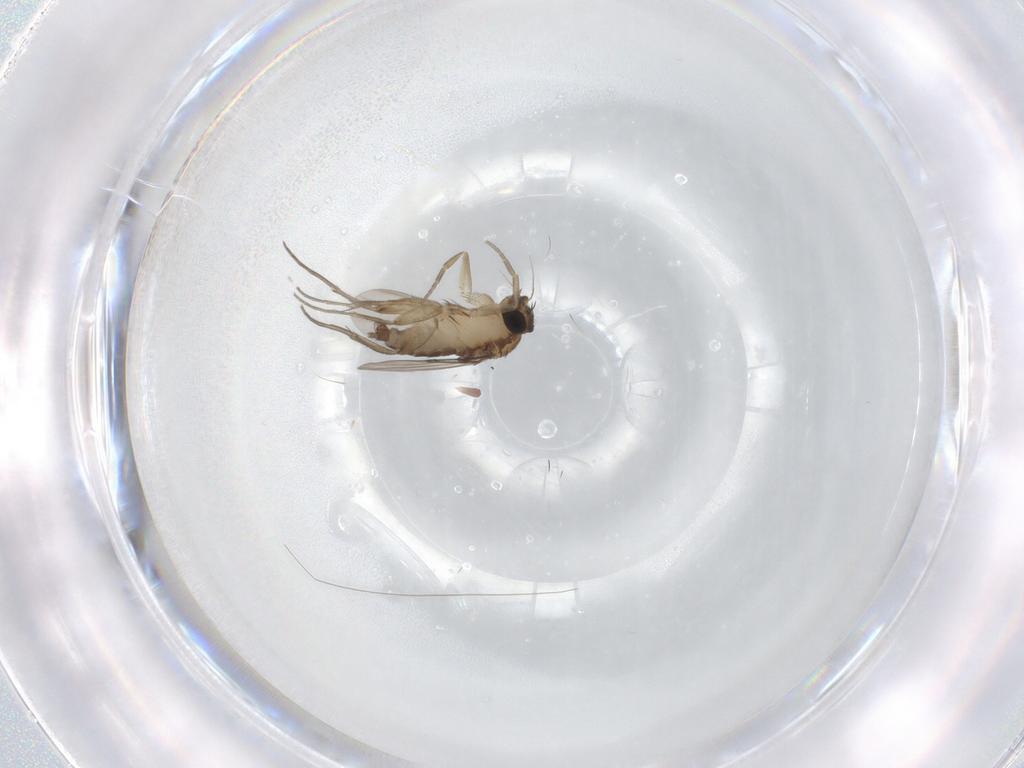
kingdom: Animalia
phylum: Arthropoda
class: Insecta
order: Diptera
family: Phoridae
